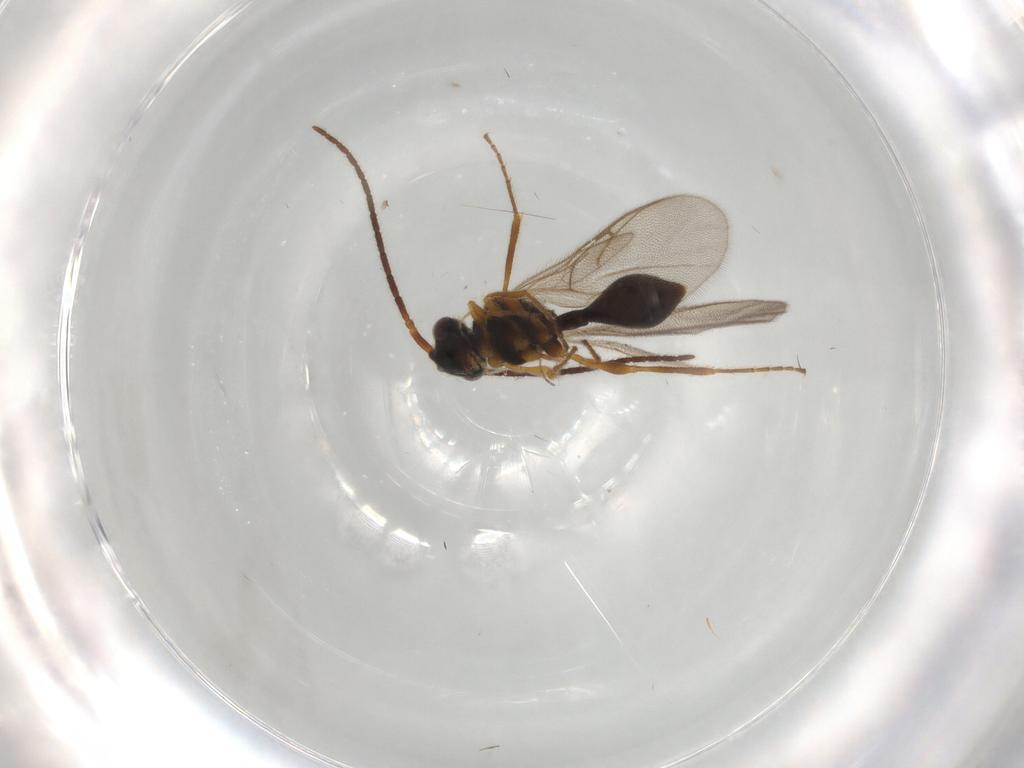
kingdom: Animalia
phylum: Arthropoda
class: Insecta
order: Hymenoptera
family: Diapriidae
